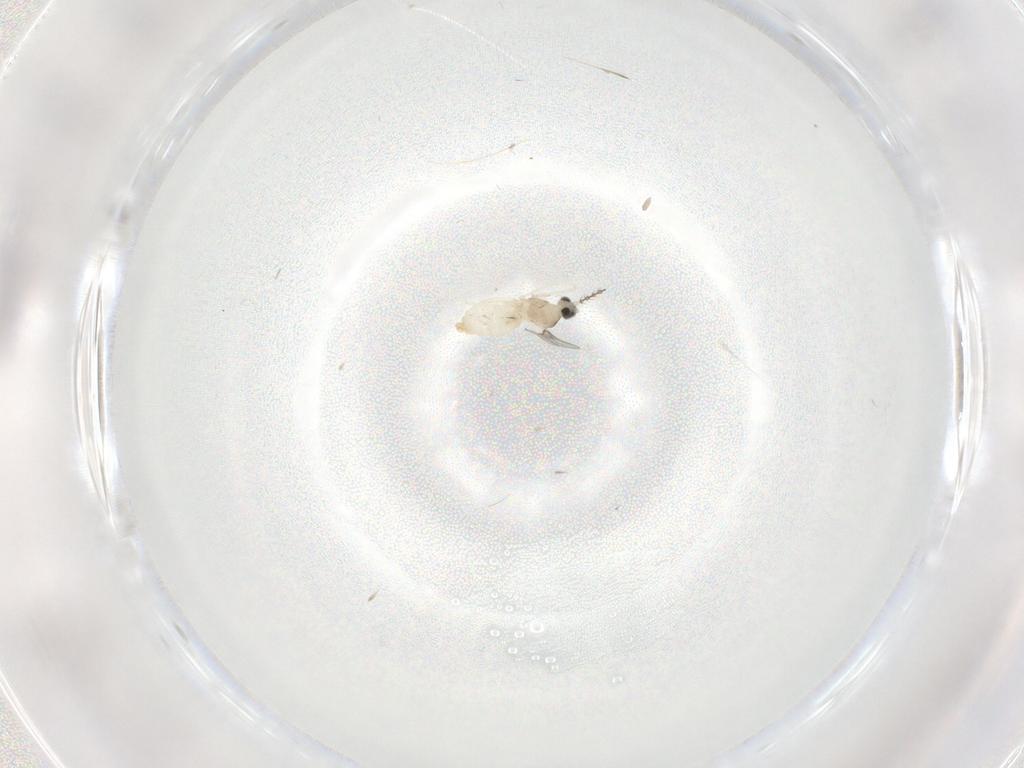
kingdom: Animalia
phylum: Arthropoda
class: Insecta
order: Diptera
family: Cecidomyiidae
